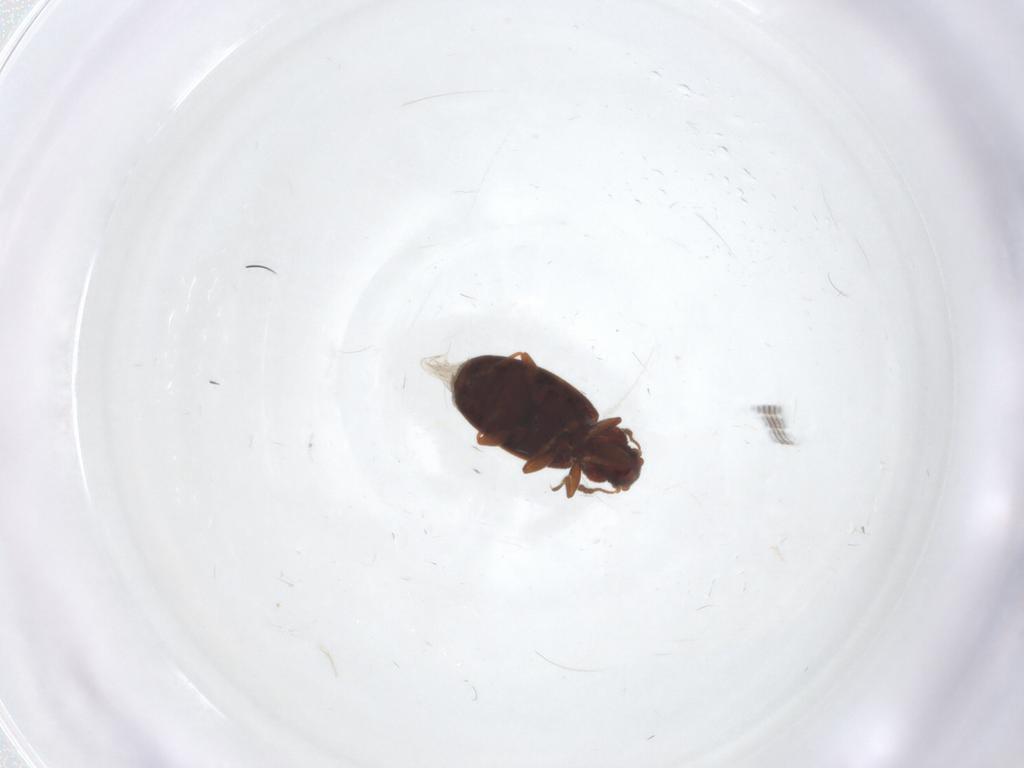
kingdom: Animalia
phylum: Arthropoda
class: Insecta
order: Coleoptera
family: Latridiidae
